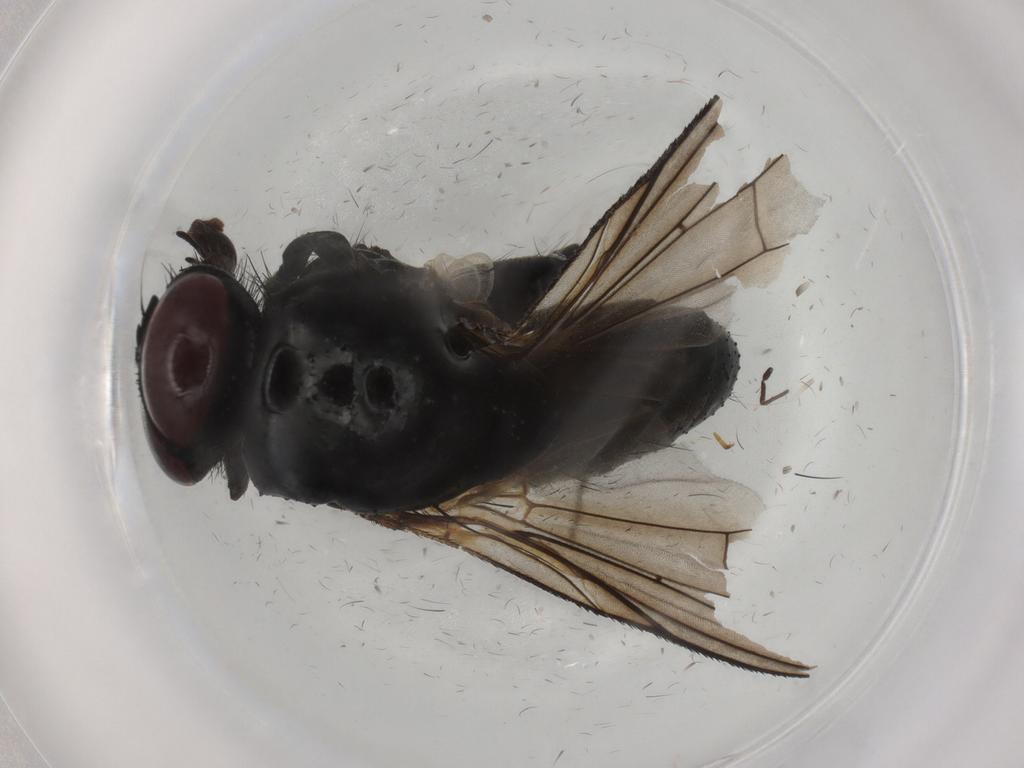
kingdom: Animalia
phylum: Arthropoda
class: Insecta
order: Diptera
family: Muscidae
